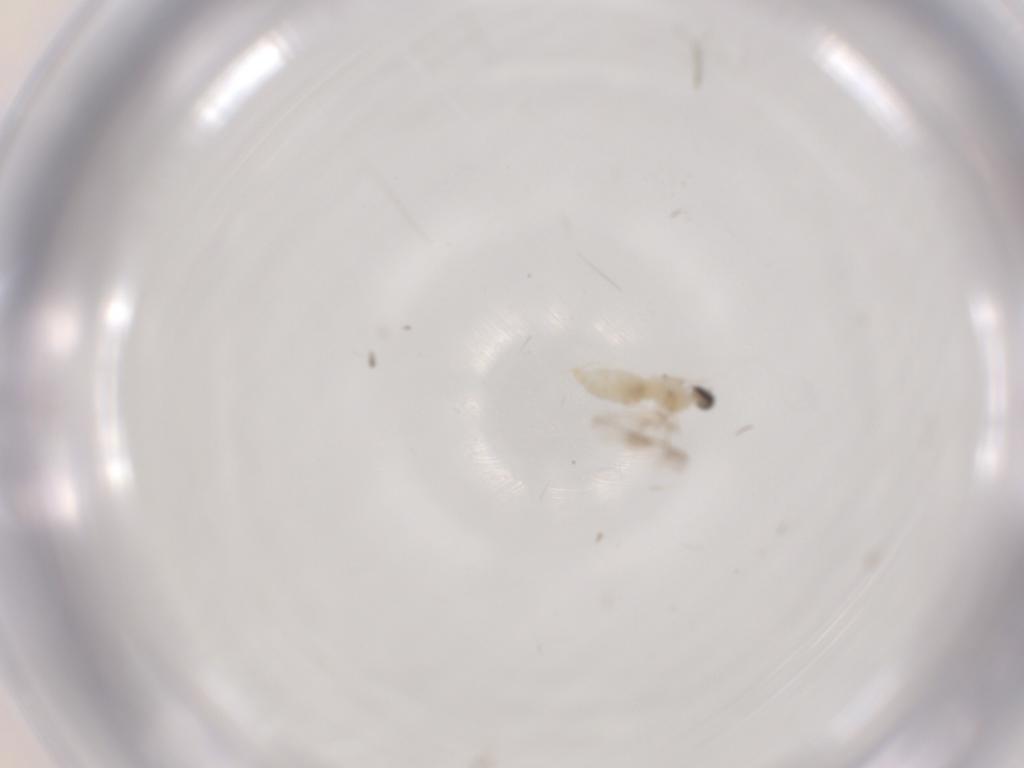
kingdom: Animalia
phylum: Arthropoda
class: Insecta
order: Diptera
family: Cecidomyiidae
